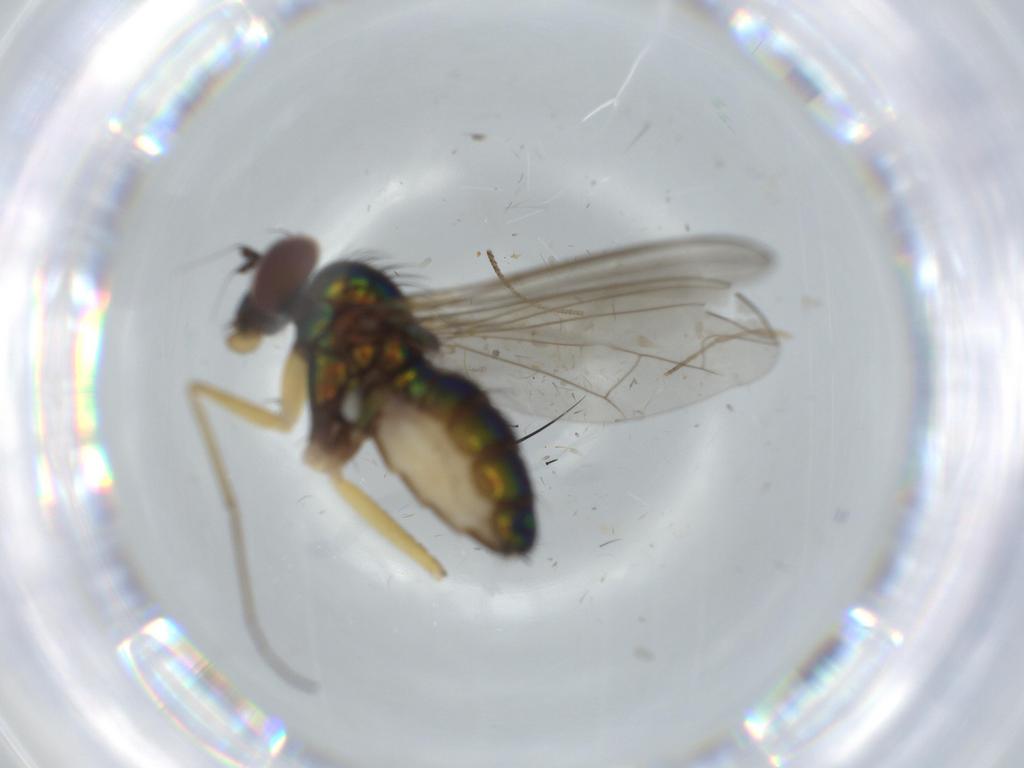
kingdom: Animalia
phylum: Arthropoda
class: Insecta
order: Diptera
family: Dolichopodidae
